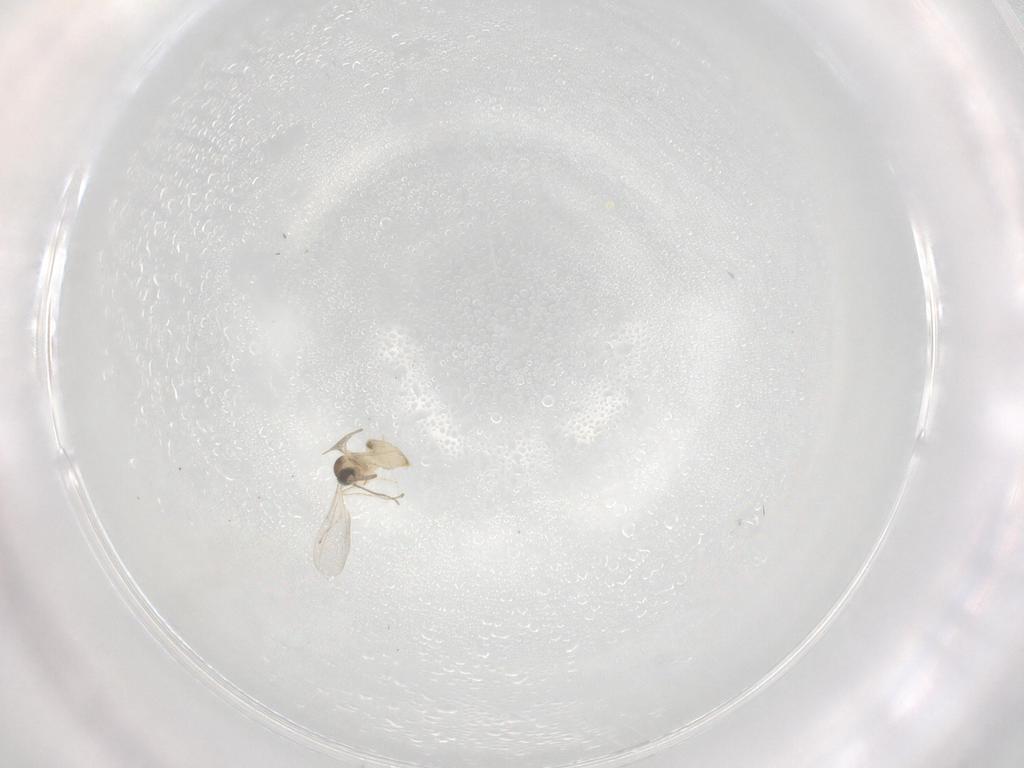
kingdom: Animalia
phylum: Arthropoda
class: Insecta
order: Diptera
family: Cecidomyiidae
